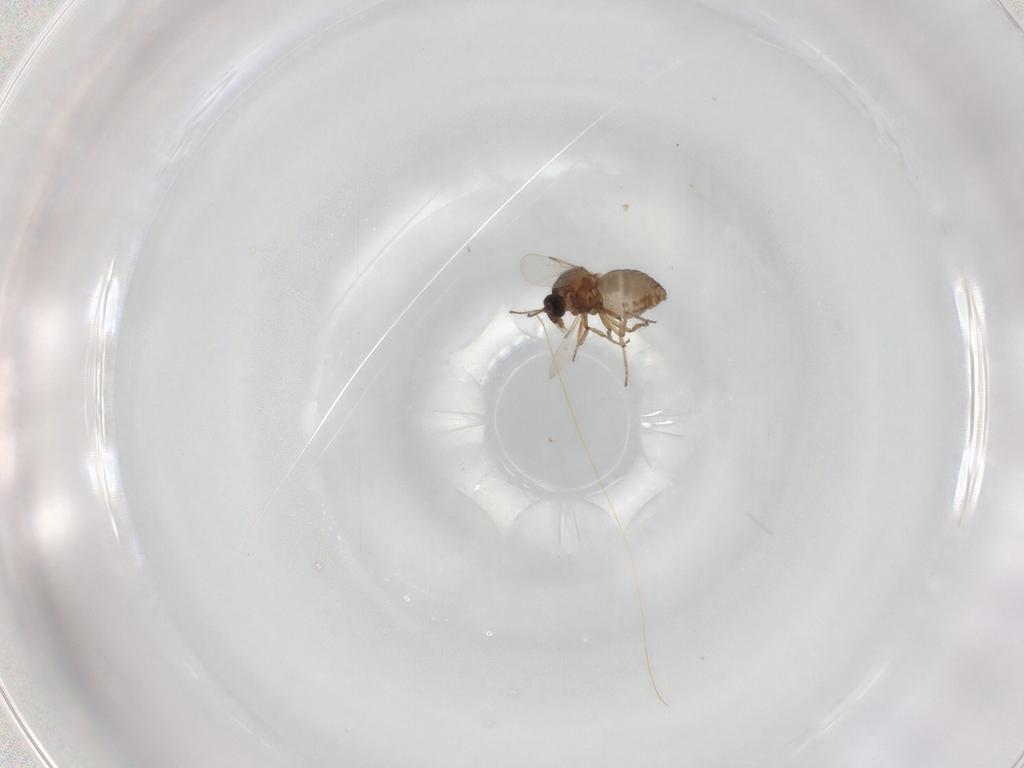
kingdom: Animalia
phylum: Arthropoda
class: Insecta
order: Diptera
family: Ceratopogonidae
